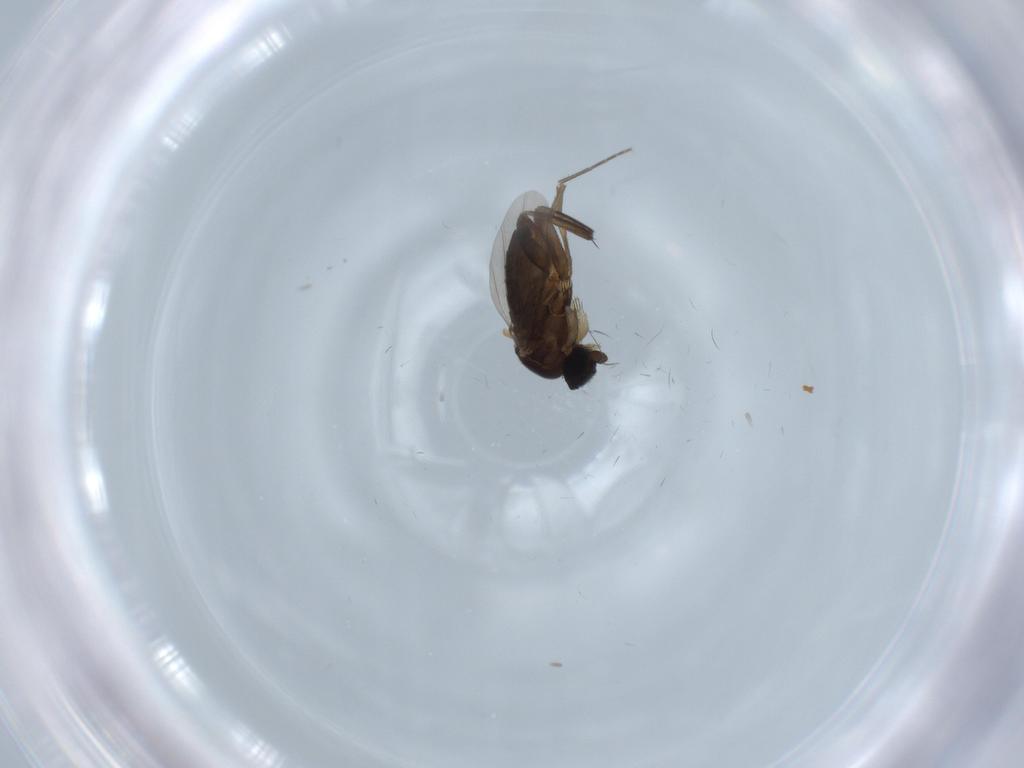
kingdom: Animalia
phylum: Arthropoda
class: Insecta
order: Diptera
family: Phoridae
